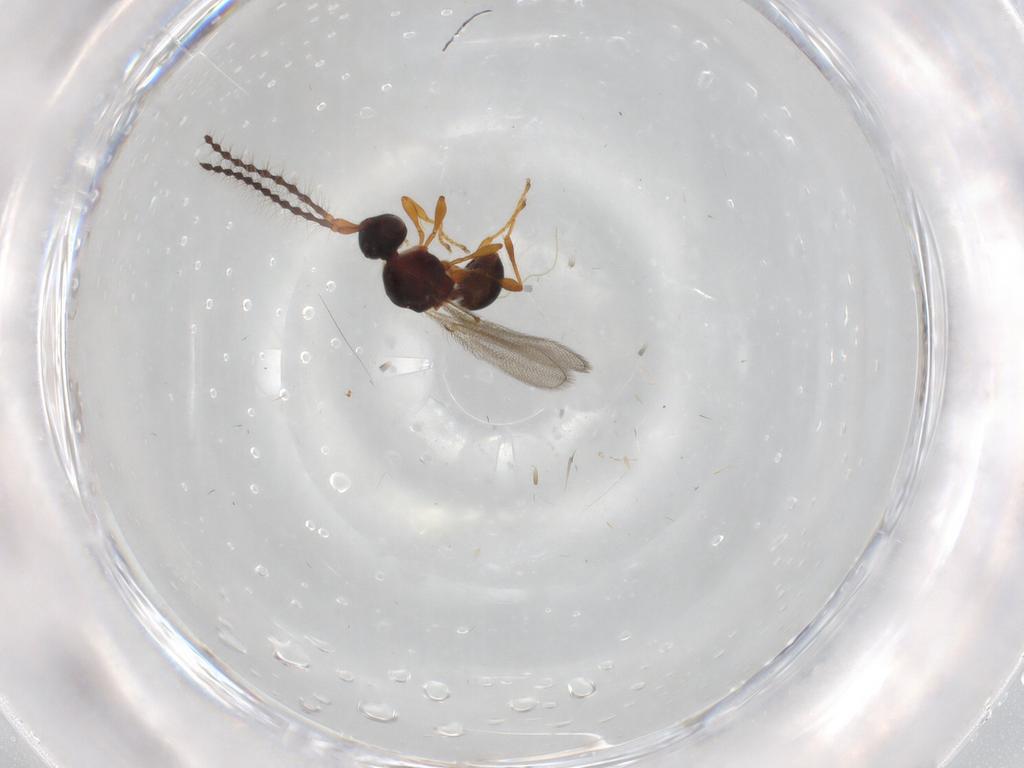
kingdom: Animalia
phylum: Arthropoda
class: Insecta
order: Hymenoptera
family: Diapriidae
